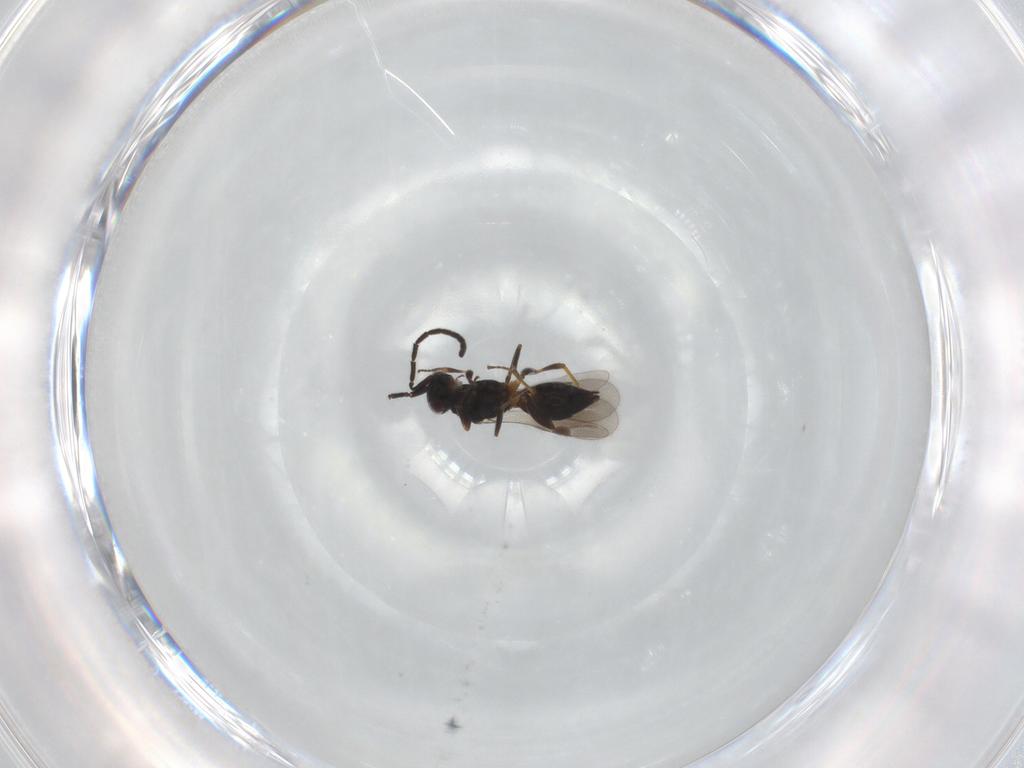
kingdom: Animalia
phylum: Arthropoda
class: Insecta
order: Hymenoptera
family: Megaspilidae
